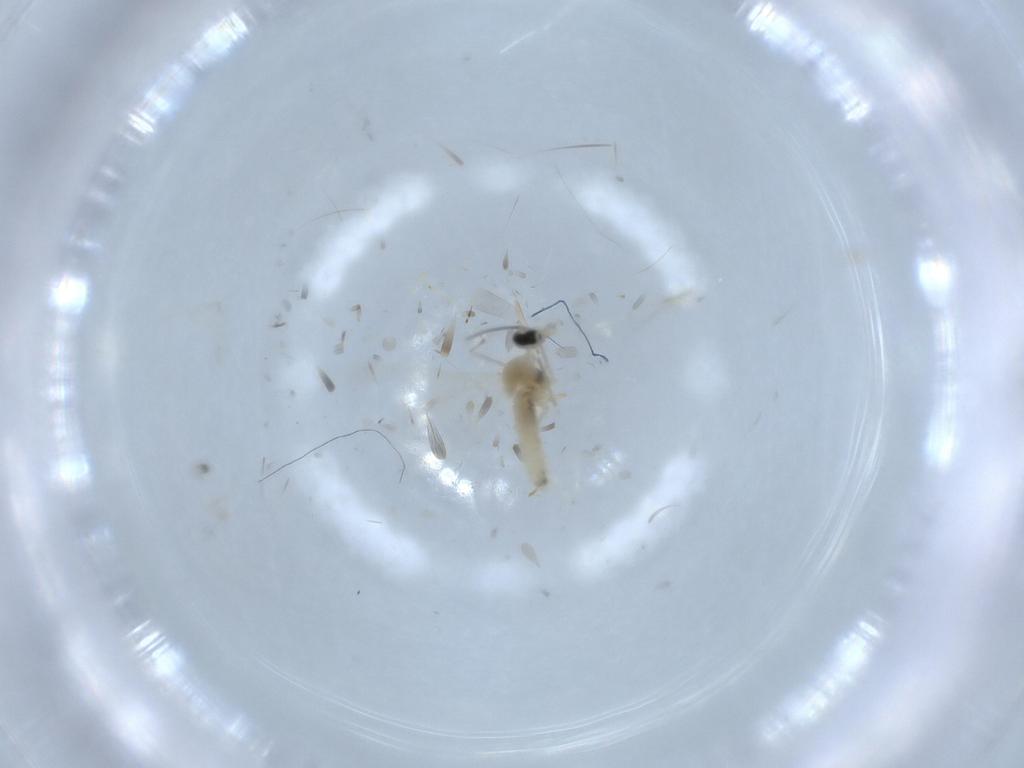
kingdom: Animalia
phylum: Arthropoda
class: Insecta
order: Diptera
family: Cecidomyiidae
